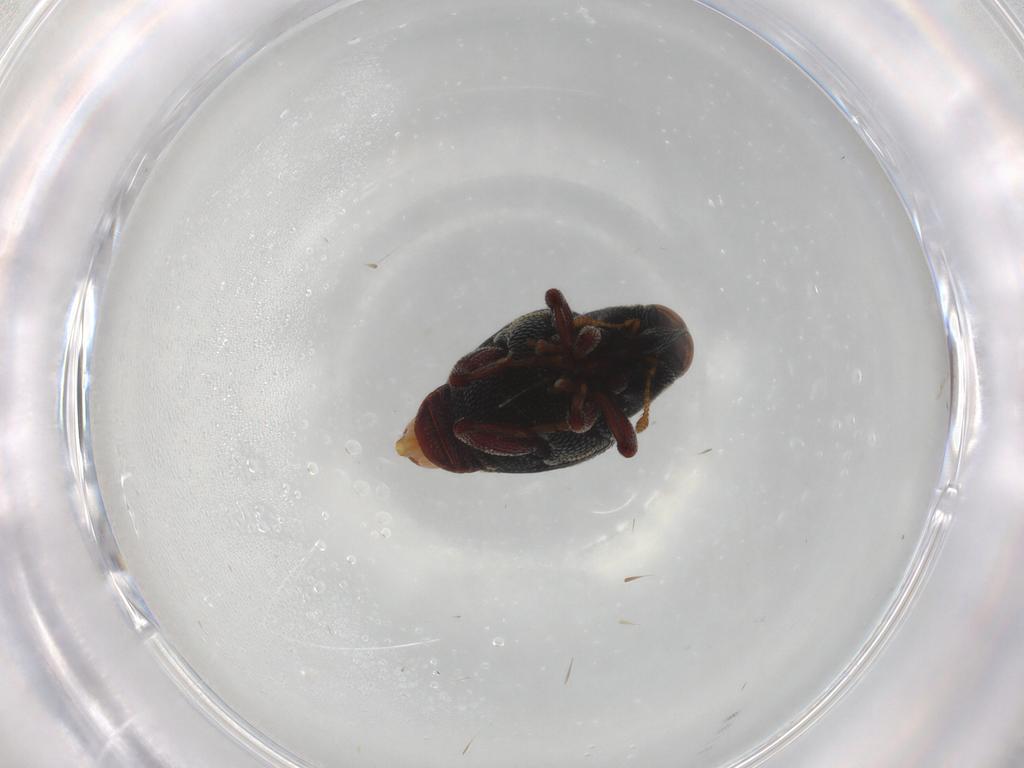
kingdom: Animalia
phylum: Arthropoda
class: Insecta
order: Coleoptera
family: Curculionidae
